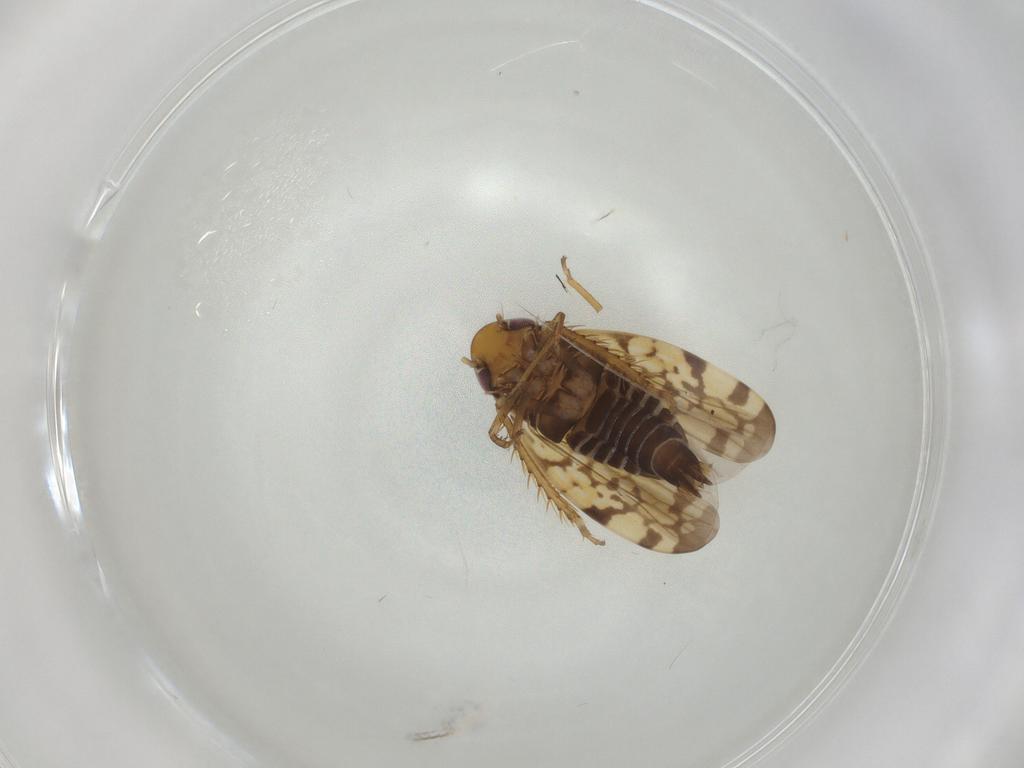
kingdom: Animalia
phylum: Arthropoda
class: Insecta
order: Hemiptera
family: Cicadellidae
